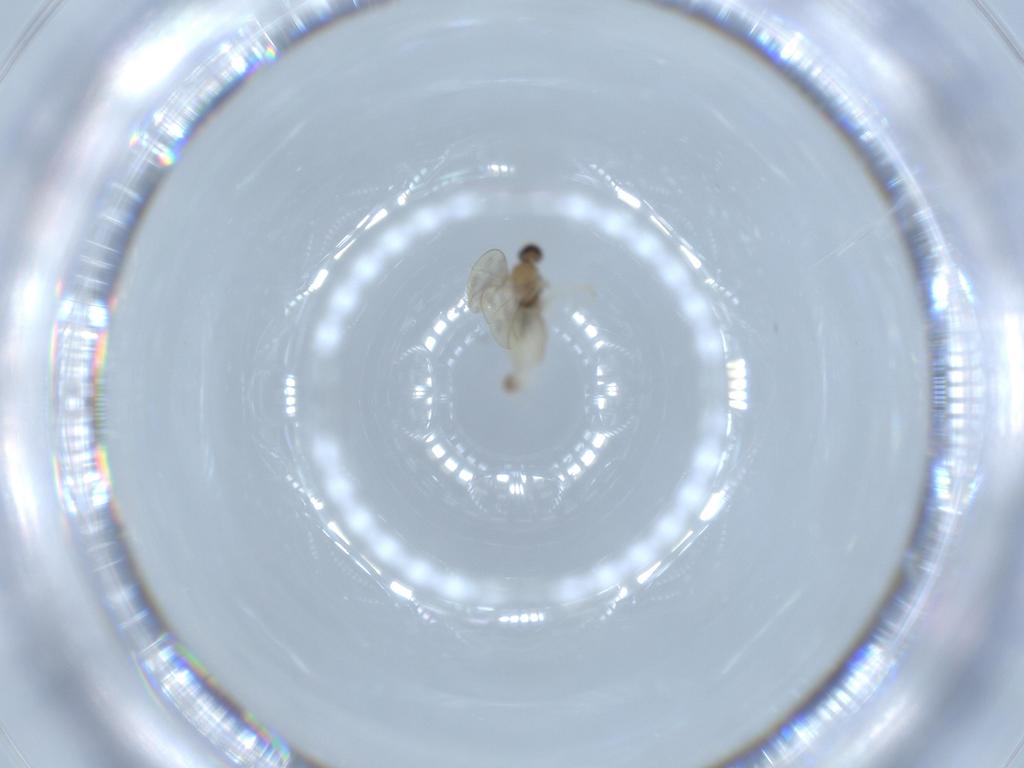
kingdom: Animalia
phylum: Arthropoda
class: Insecta
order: Diptera
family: Cecidomyiidae
